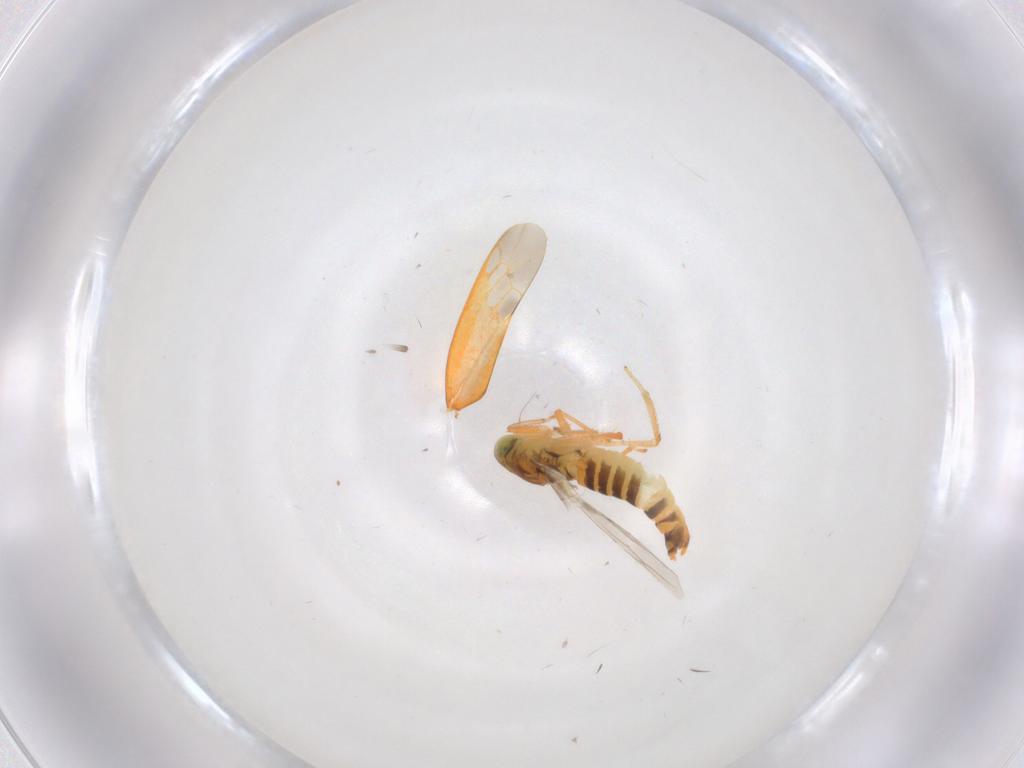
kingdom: Animalia
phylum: Arthropoda
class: Insecta
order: Hemiptera
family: Cicadellidae
